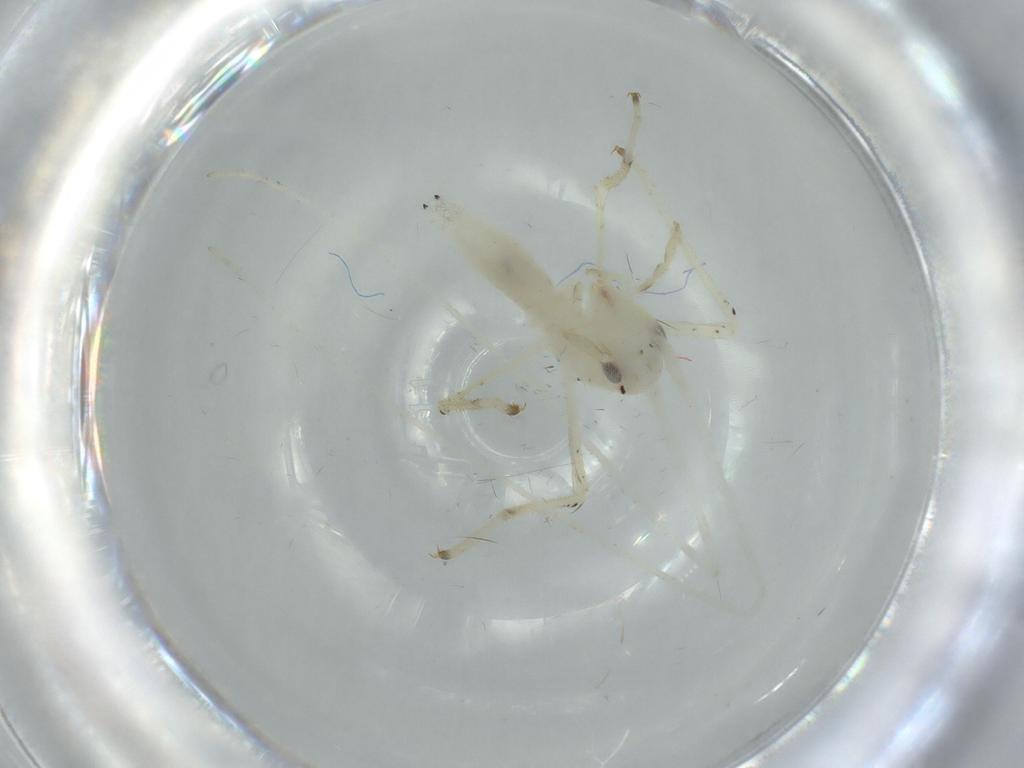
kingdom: Animalia
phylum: Arthropoda
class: Insecta
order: Orthoptera
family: Oecanthidae
